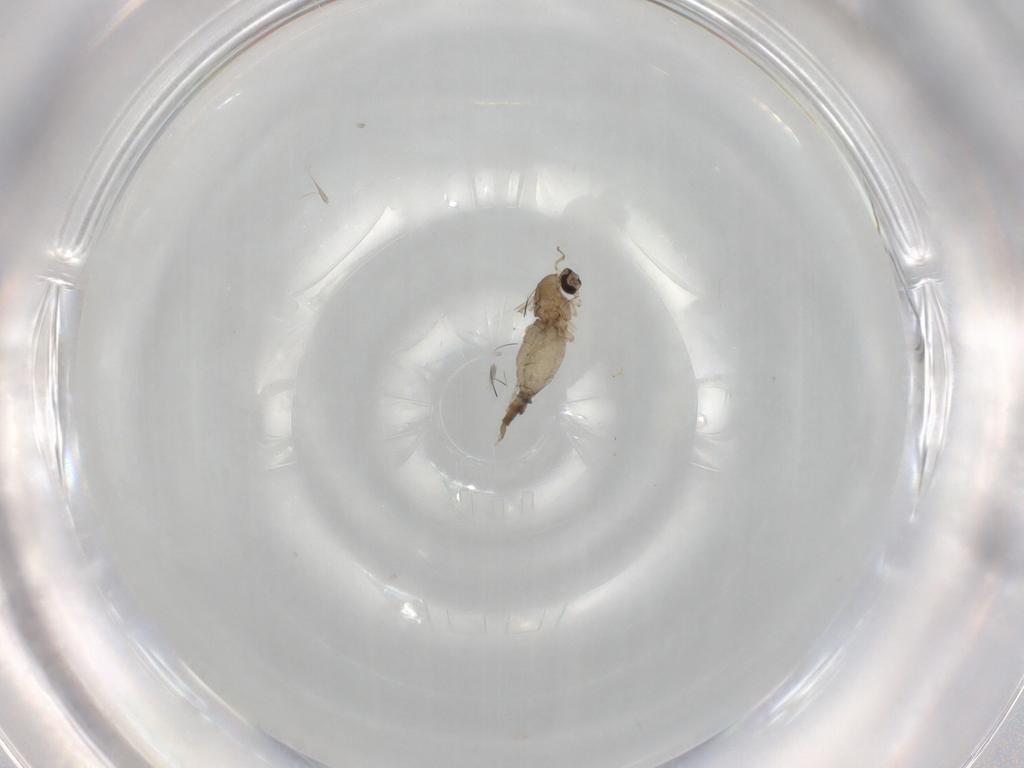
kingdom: Animalia
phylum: Arthropoda
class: Insecta
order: Diptera
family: Cecidomyiidae
